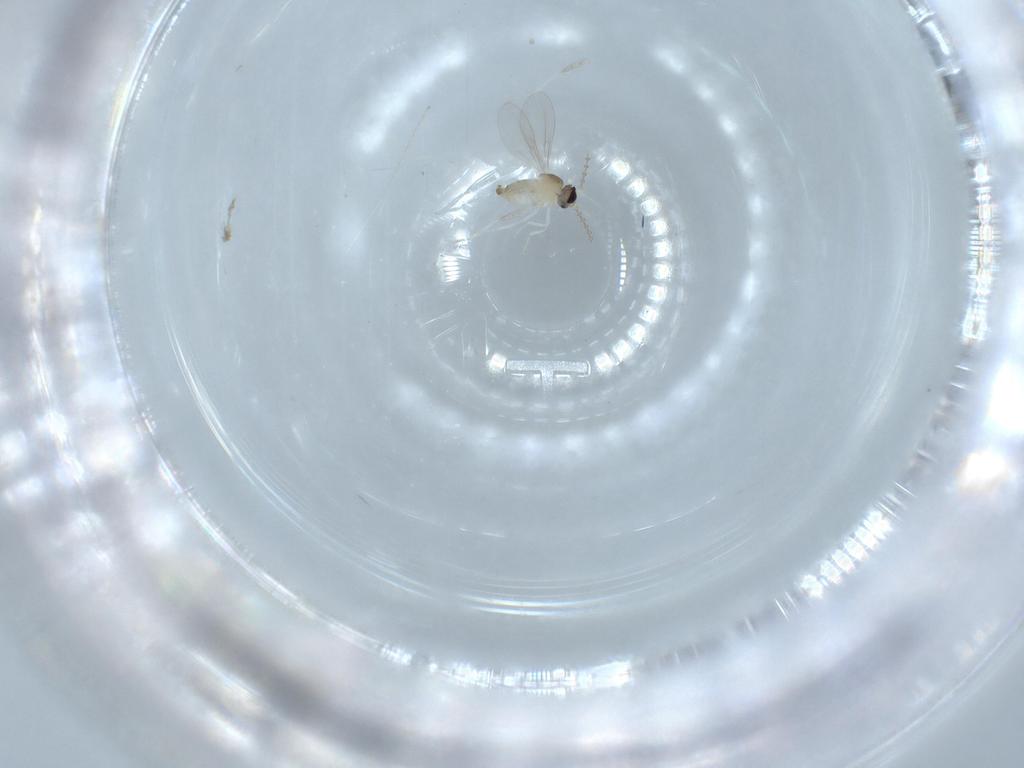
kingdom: Animalia
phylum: Arthropoda
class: Insecta
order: Diptera
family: Cecidomyiidae
